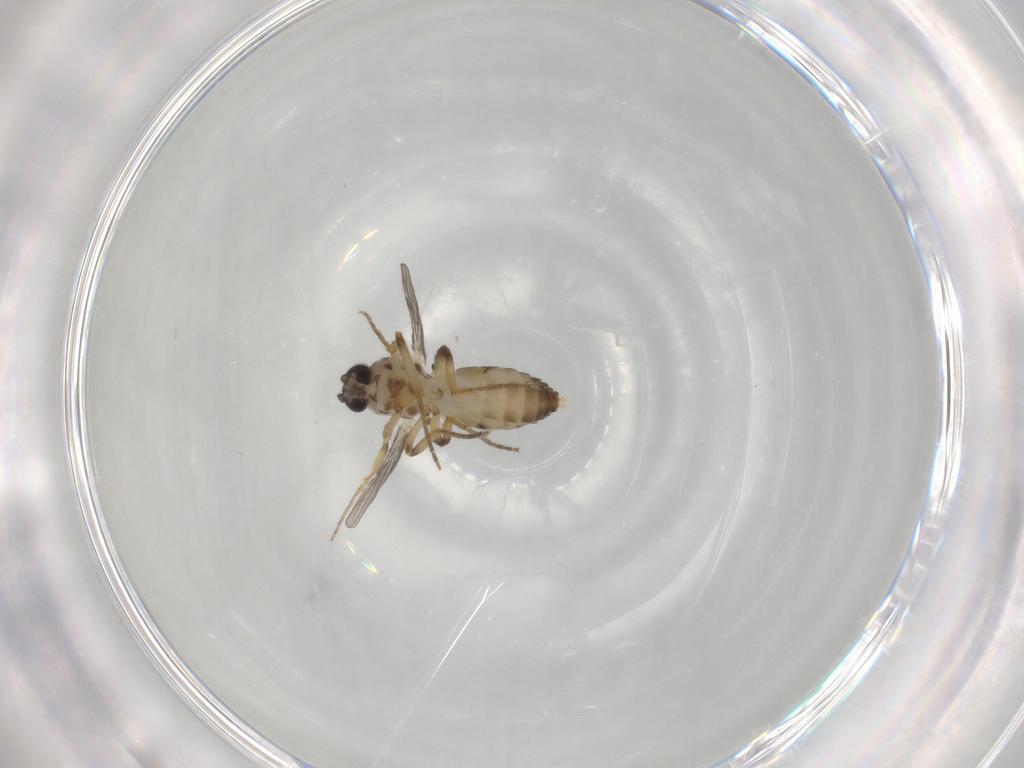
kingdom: Animalia
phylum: Arthropoda
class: Insecta
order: Diptera
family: Ceratopogonidae
